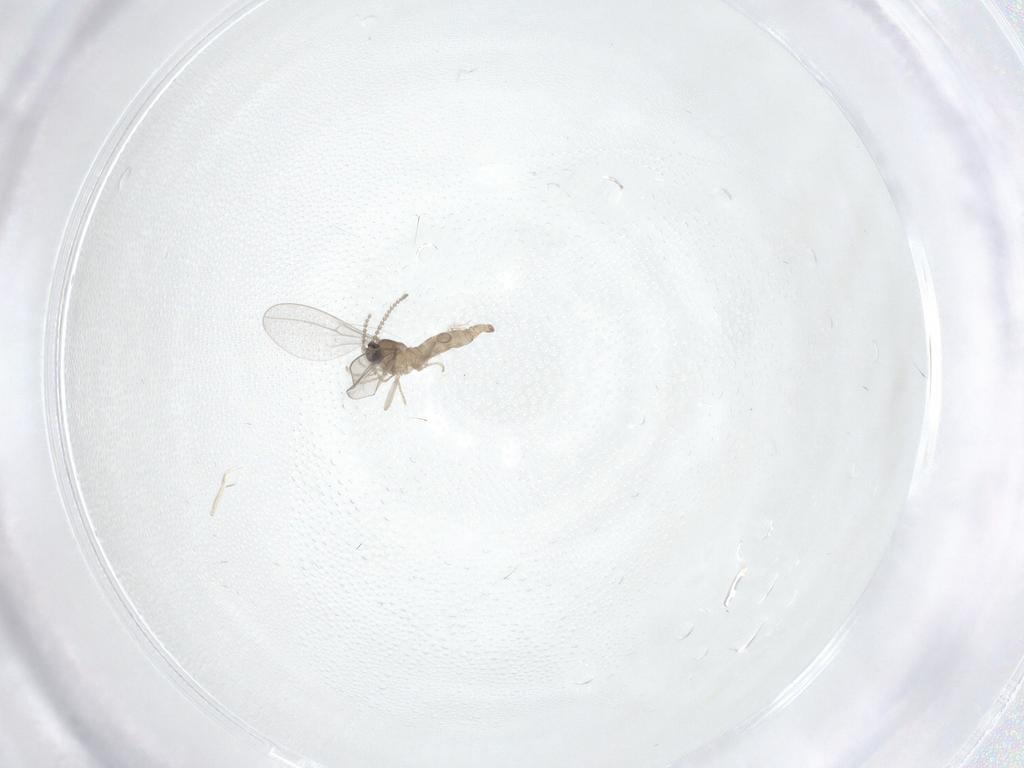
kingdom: Animalia
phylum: Arthropoda
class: Insecta
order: Diptera
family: Cecidomyiidae
